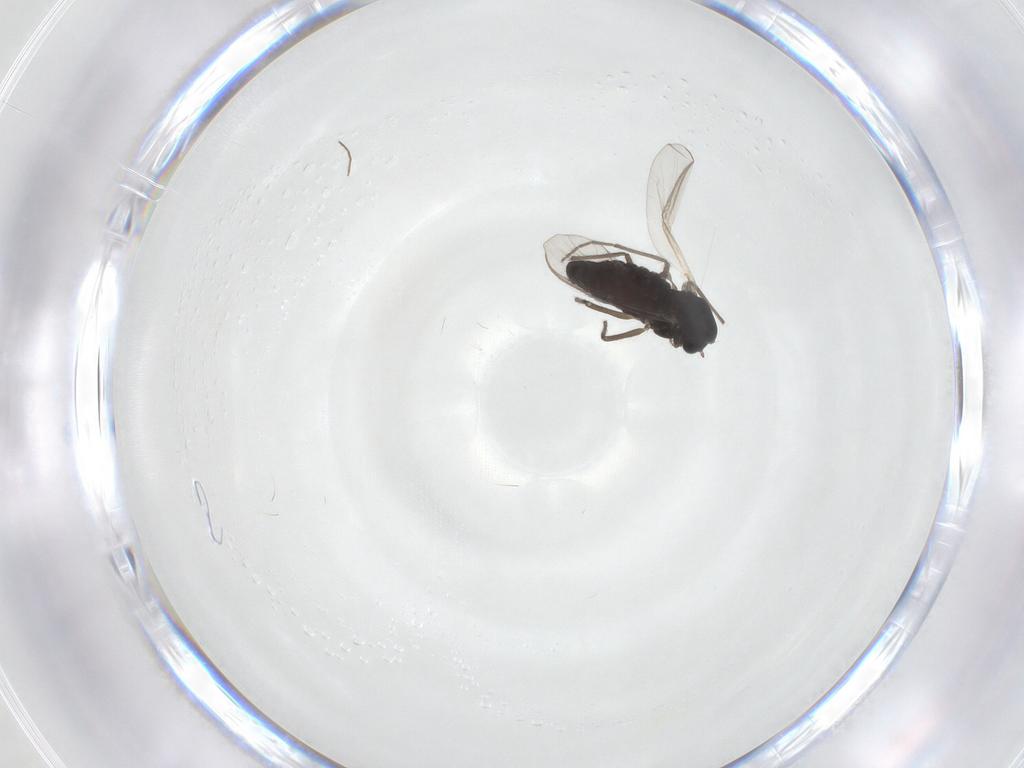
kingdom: Animalia
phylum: Arthropoda
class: Insecta
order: Diptera
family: Chironomidae
